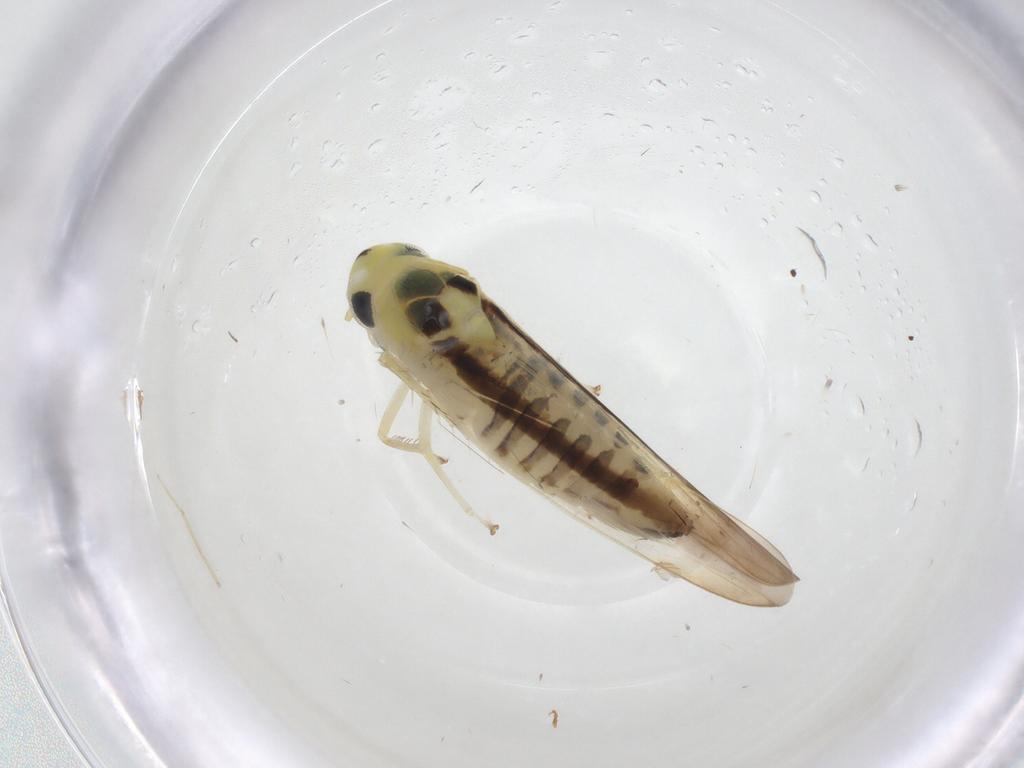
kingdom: Animalia
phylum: Arthropoda
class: Insecta
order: Hemiptera
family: Cicadellidae
